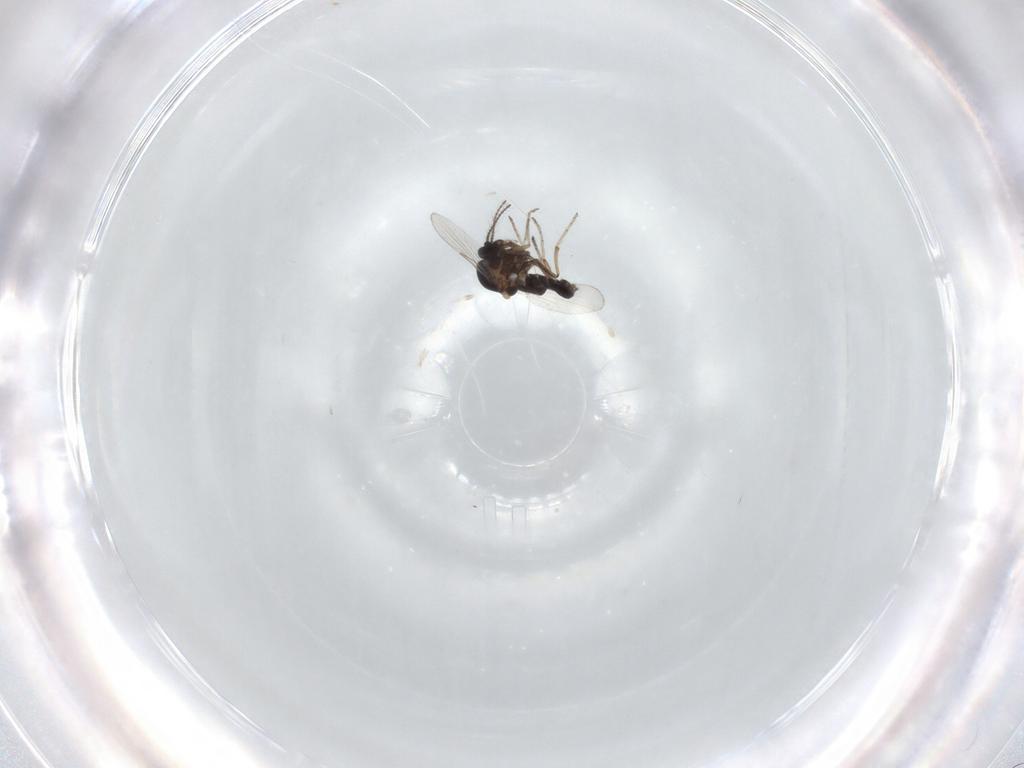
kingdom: Animalia
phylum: Arthropoda
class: Insecta
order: Diptera
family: Ceratopogonidae
